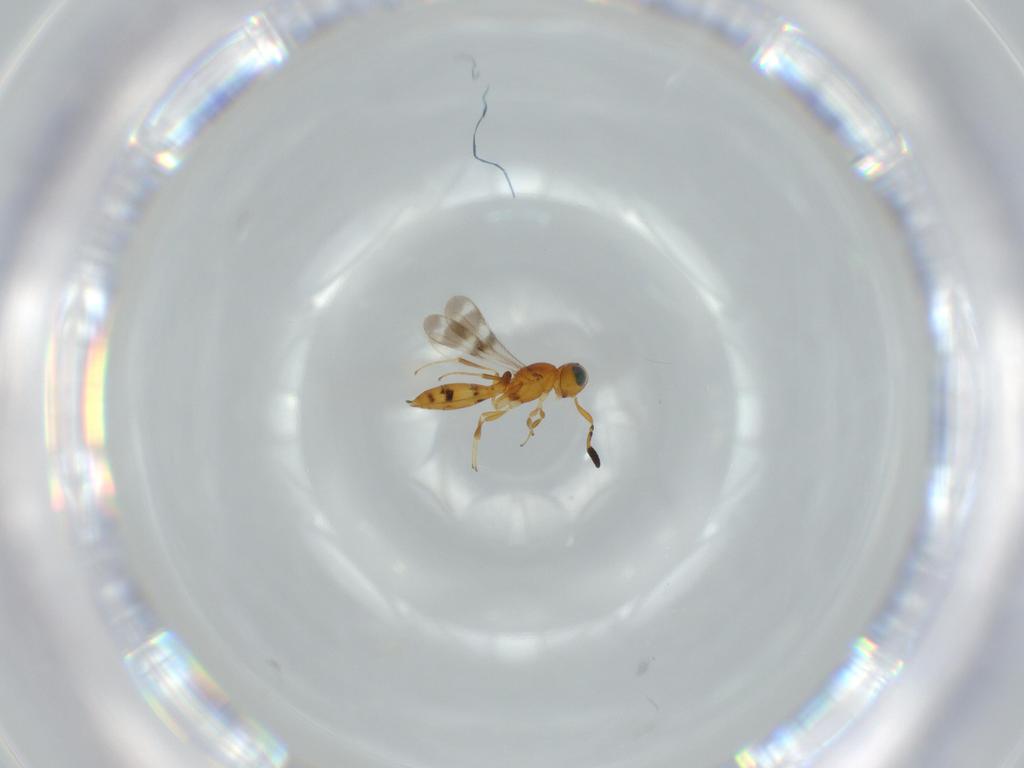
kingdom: Animalia
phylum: Arthropoda
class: Insecta
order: Hymenoptera
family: Scelionidae
